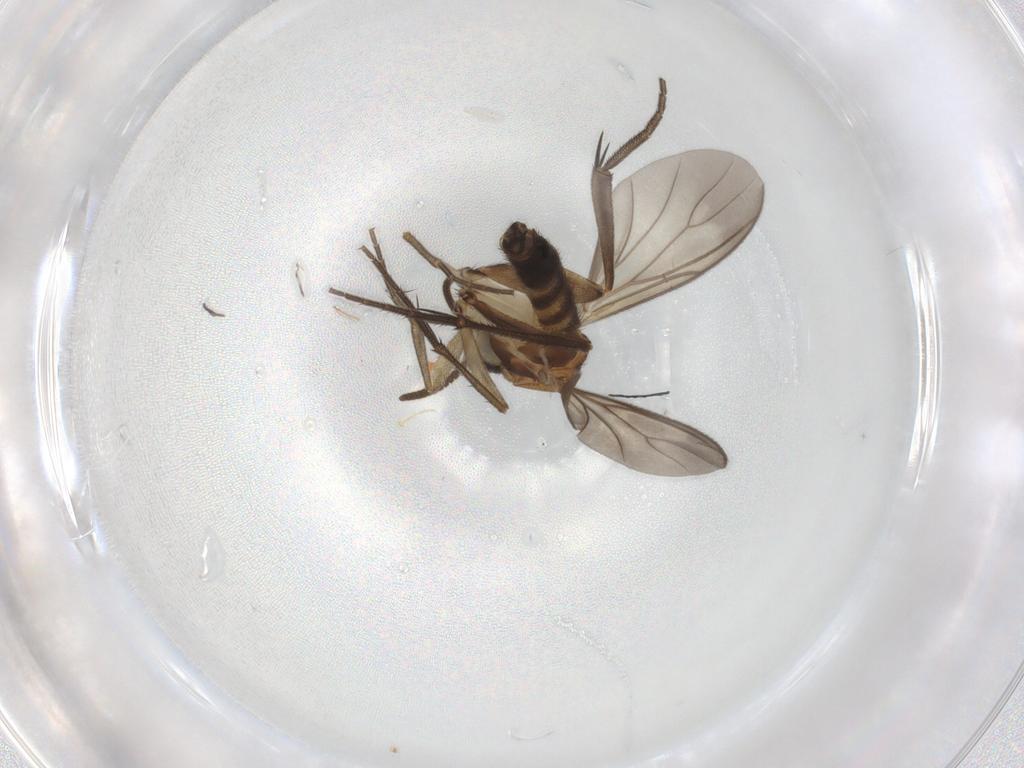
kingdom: Animalia
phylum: Arthropoda
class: Insecta
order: Diptera
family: Mycetophilidae
